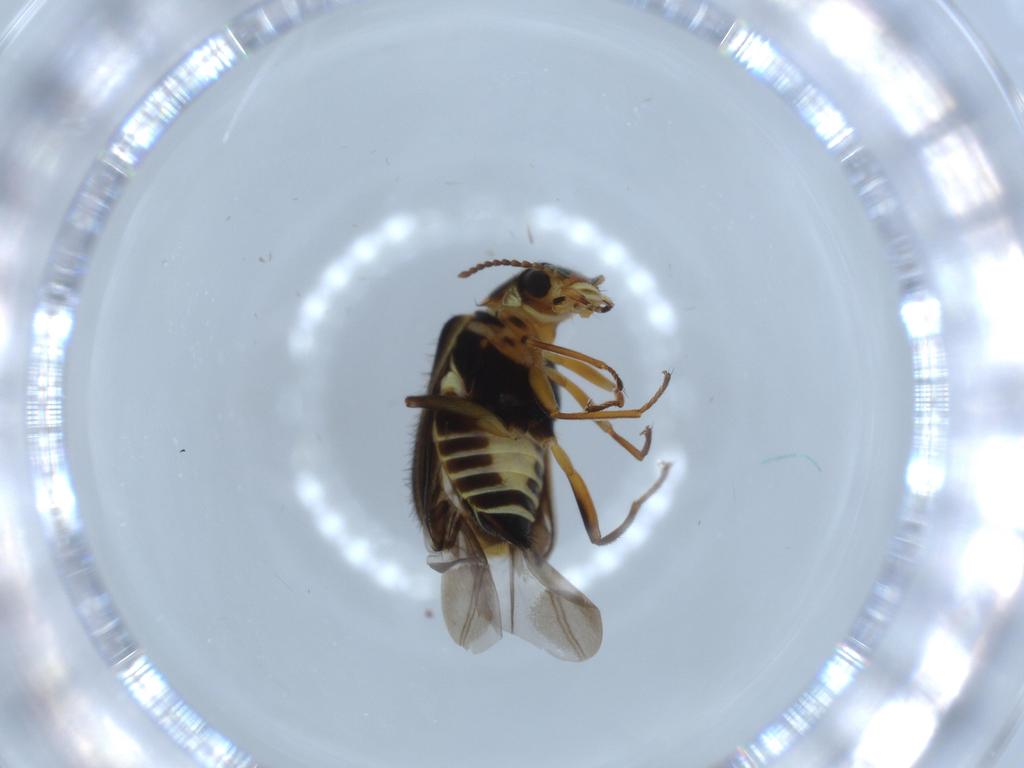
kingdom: Animalia
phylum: Arthropoda
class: Insecta
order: Coleoptera
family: Melyridae
